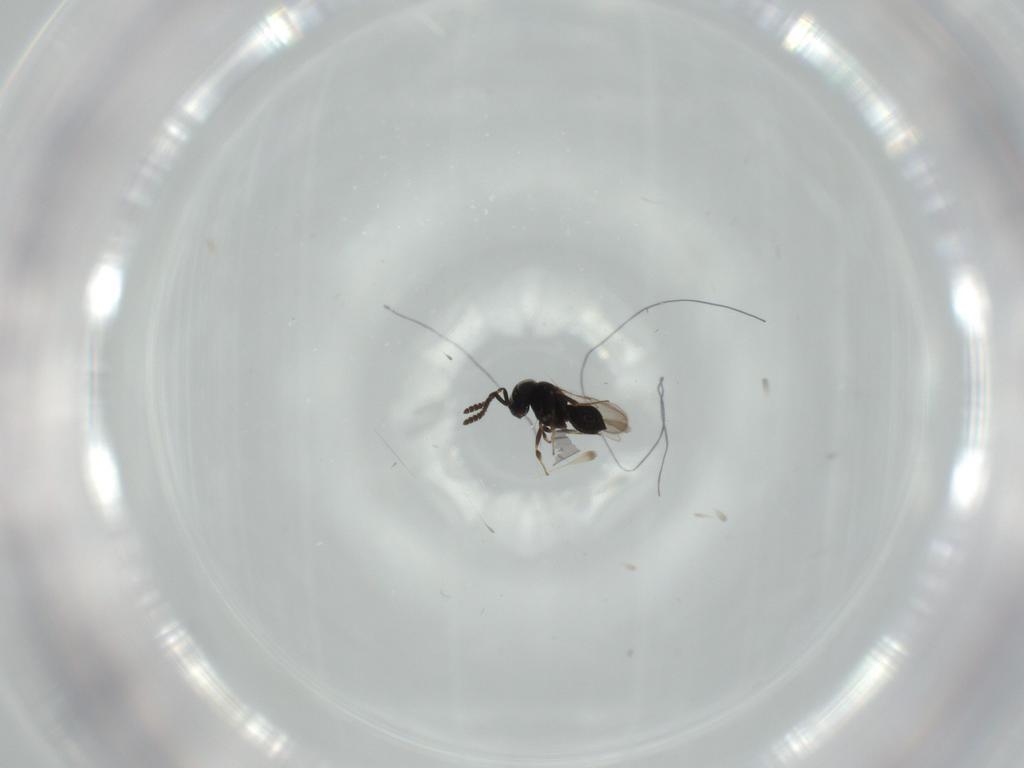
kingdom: Animalia
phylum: Arthropoda
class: Insecta
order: Hymenoptera
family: Scelionidae
